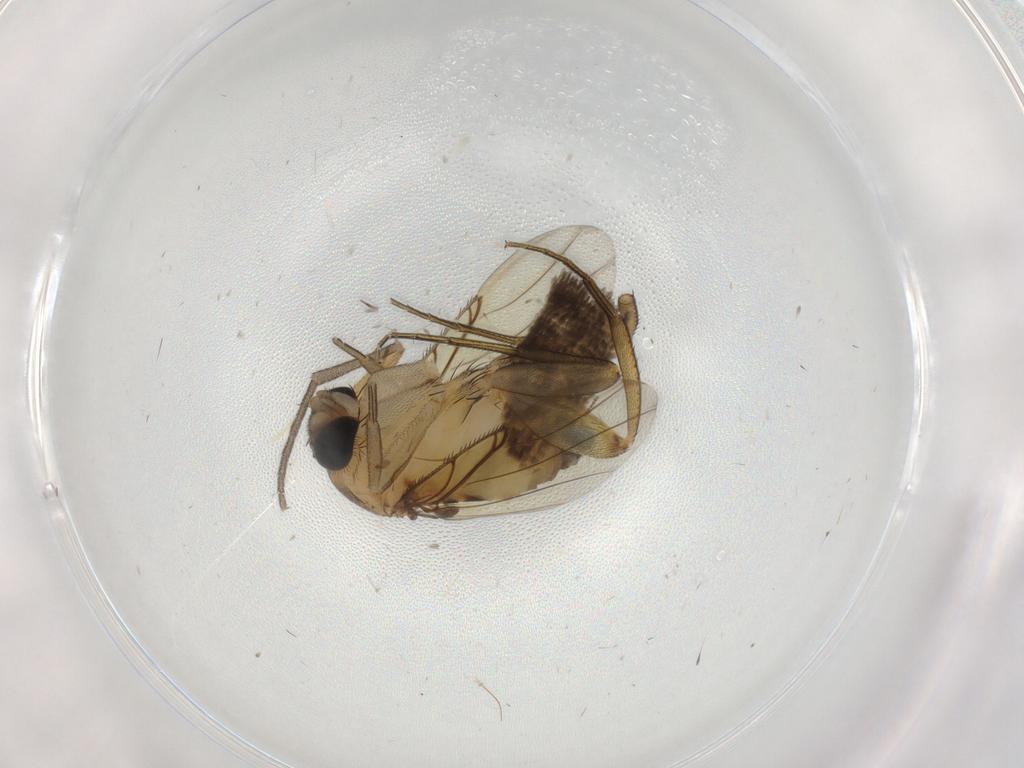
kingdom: Animalia
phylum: Arthropoda
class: Insecta
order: Diptera
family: Mycetophilidae
